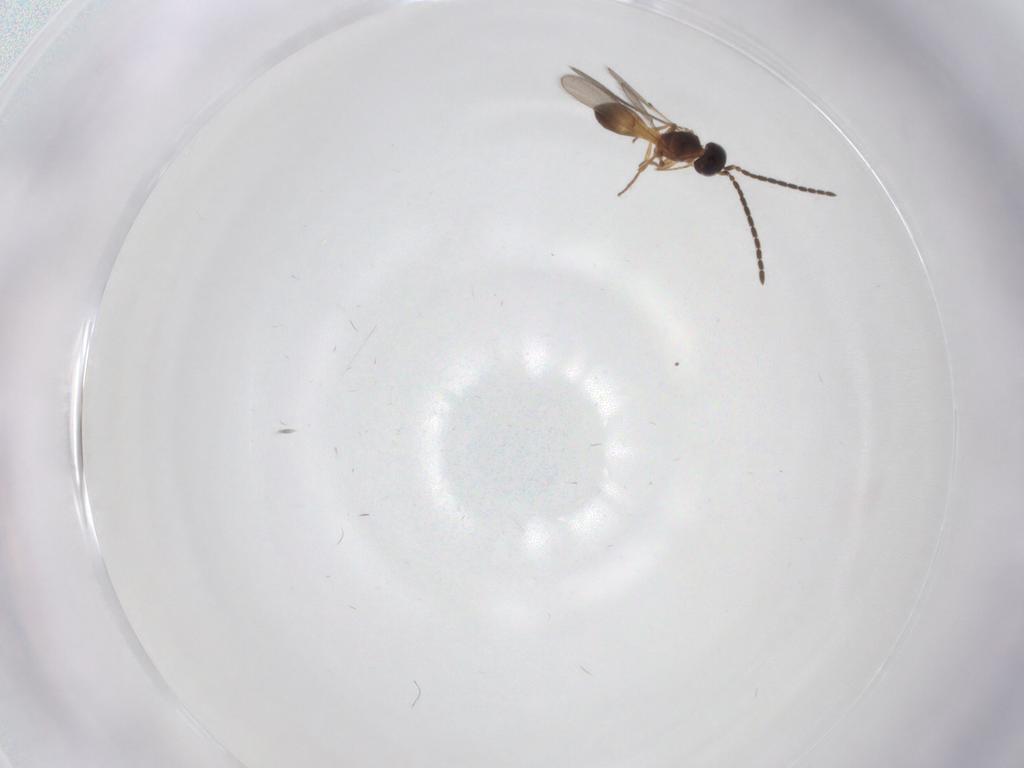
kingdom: Animalia
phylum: Arthropoda
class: Insecta
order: Hymenoptera
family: Scelionidae
